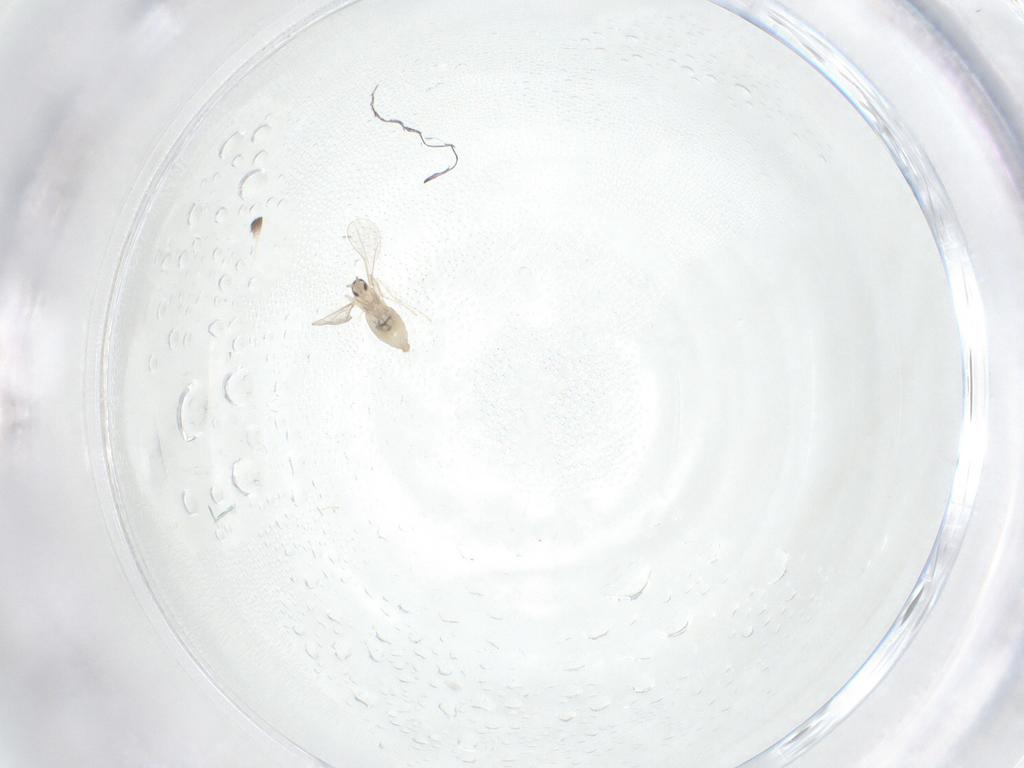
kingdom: Animalia
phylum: Arthropoda
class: Insecta
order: Diptera
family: Cecidomyiidae
